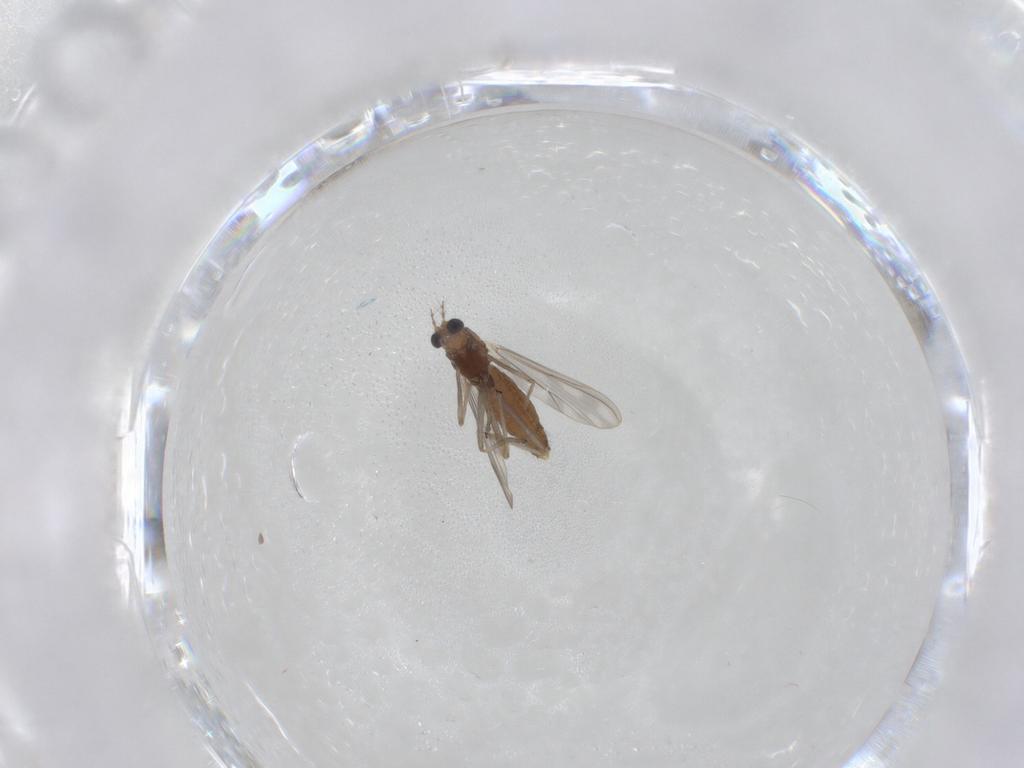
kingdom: Animalia
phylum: Arthropoda
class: Insecta
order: Diptera
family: Chironomidae
